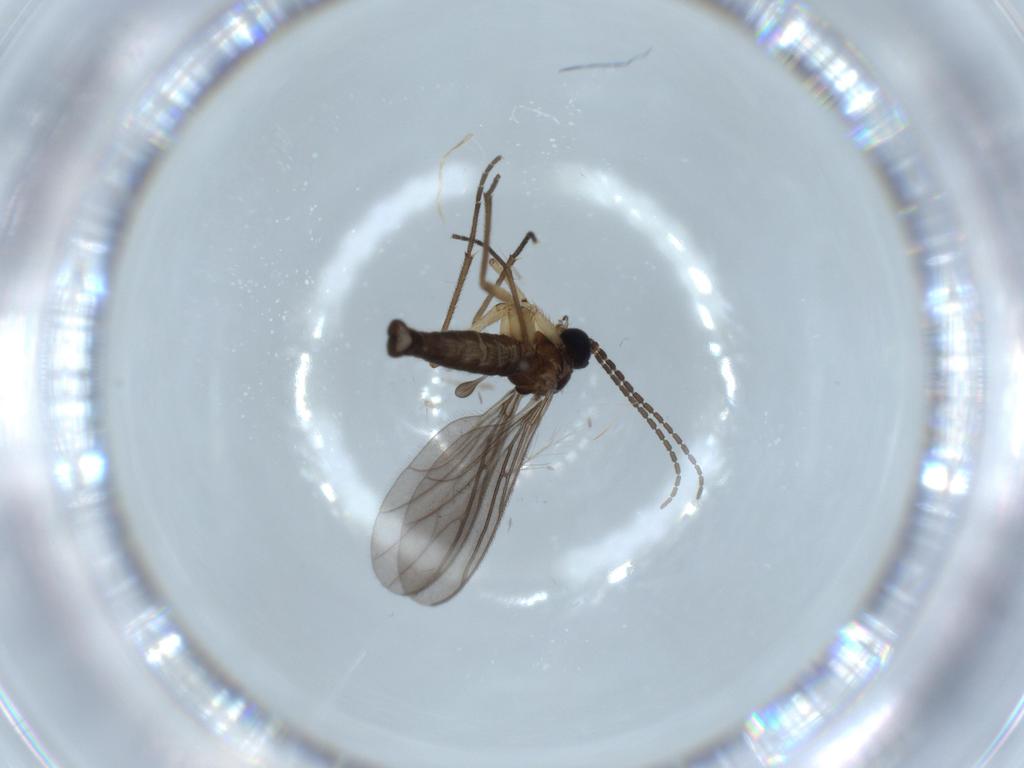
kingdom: Animalia
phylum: Arthropoda
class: Insecta
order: Diptera
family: Sciaridae
